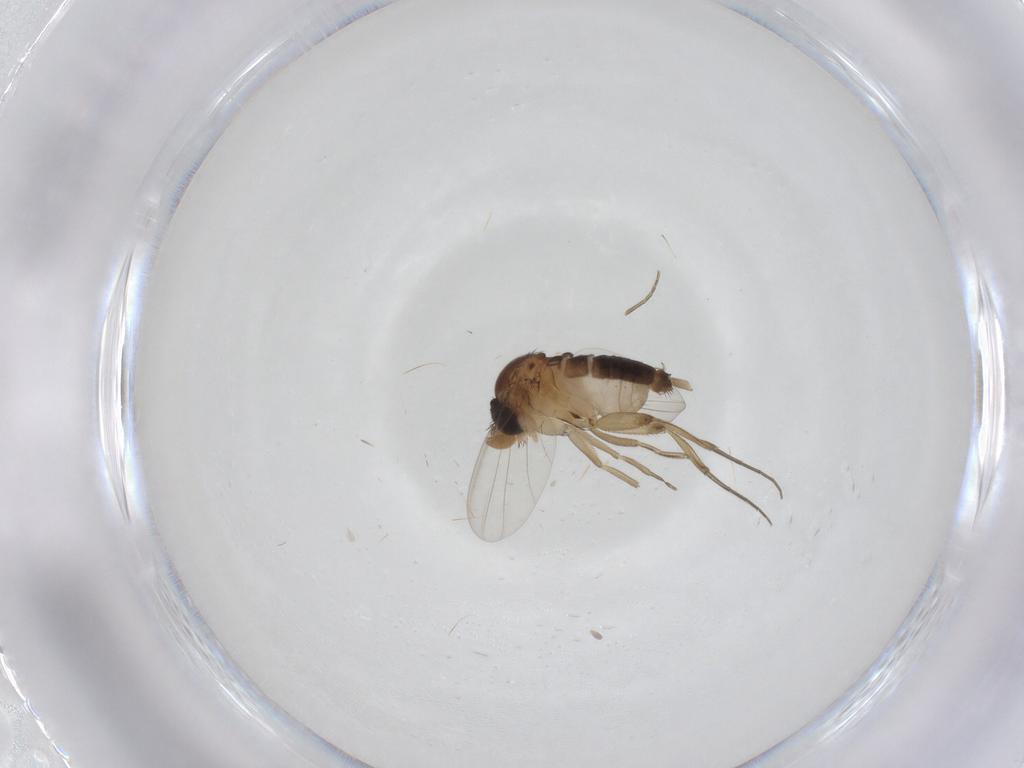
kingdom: Animalia
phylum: Arthropoda
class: Insecta
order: Diptera
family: Phoridae
